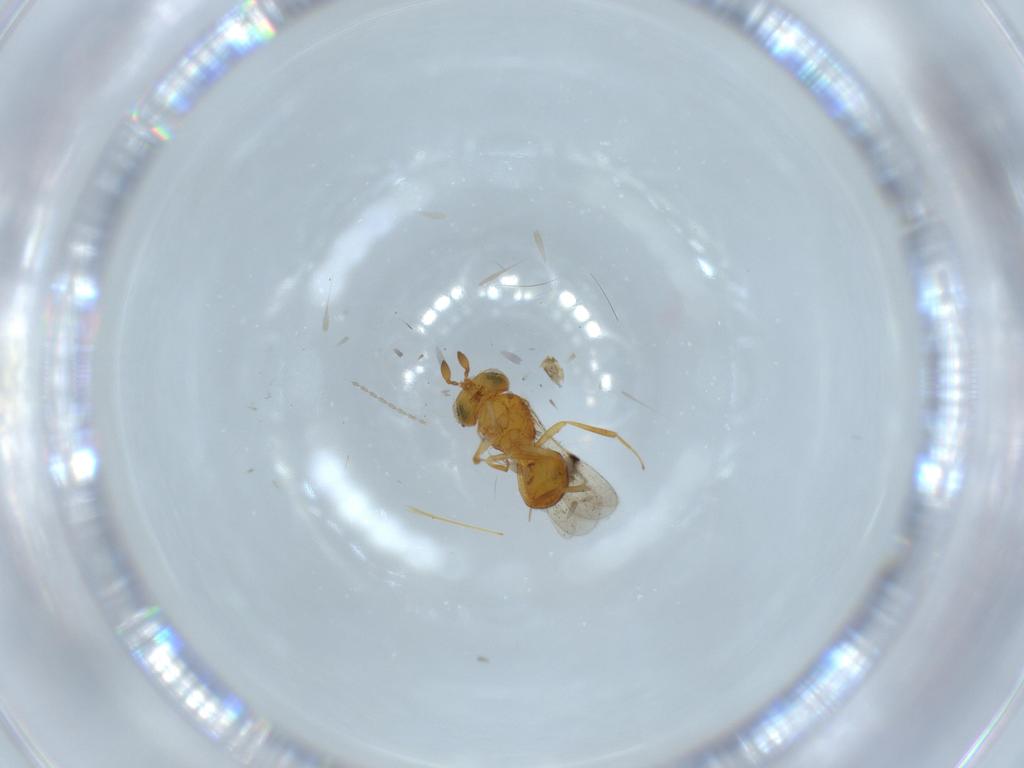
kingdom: Animalia
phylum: Arthropoda
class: Insecta
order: Hymenoptera
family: Scelionidae
